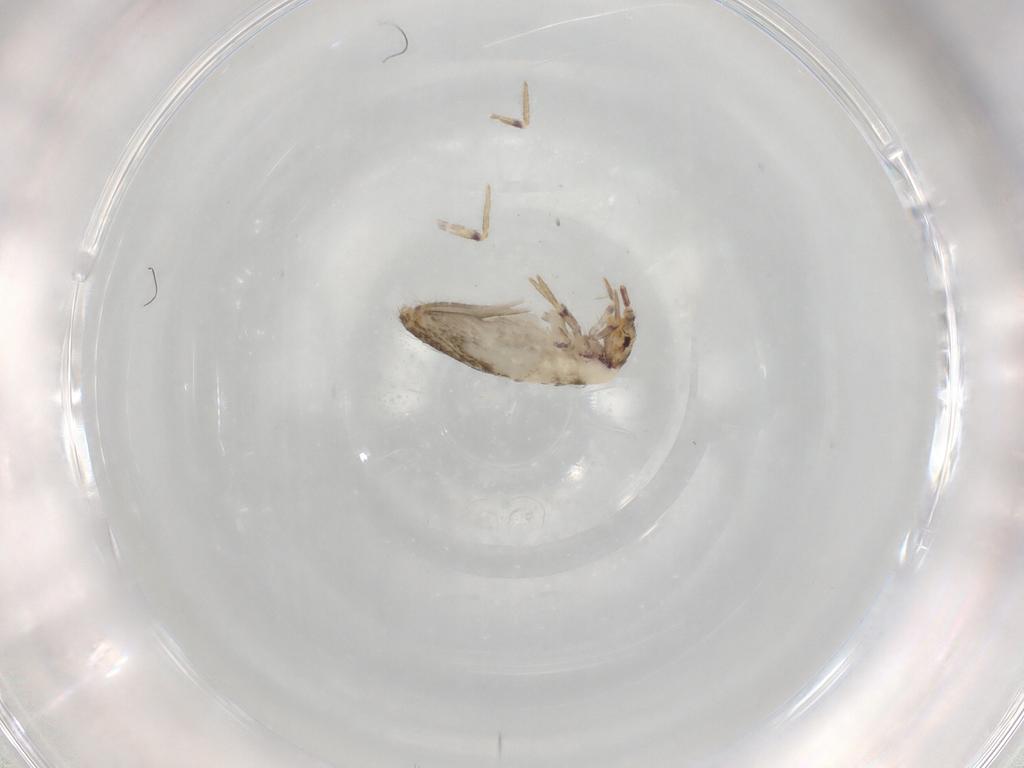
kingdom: Animalia
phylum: Arthropoda
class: Collembola
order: Entomobryomorpha
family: Entomobryidae
